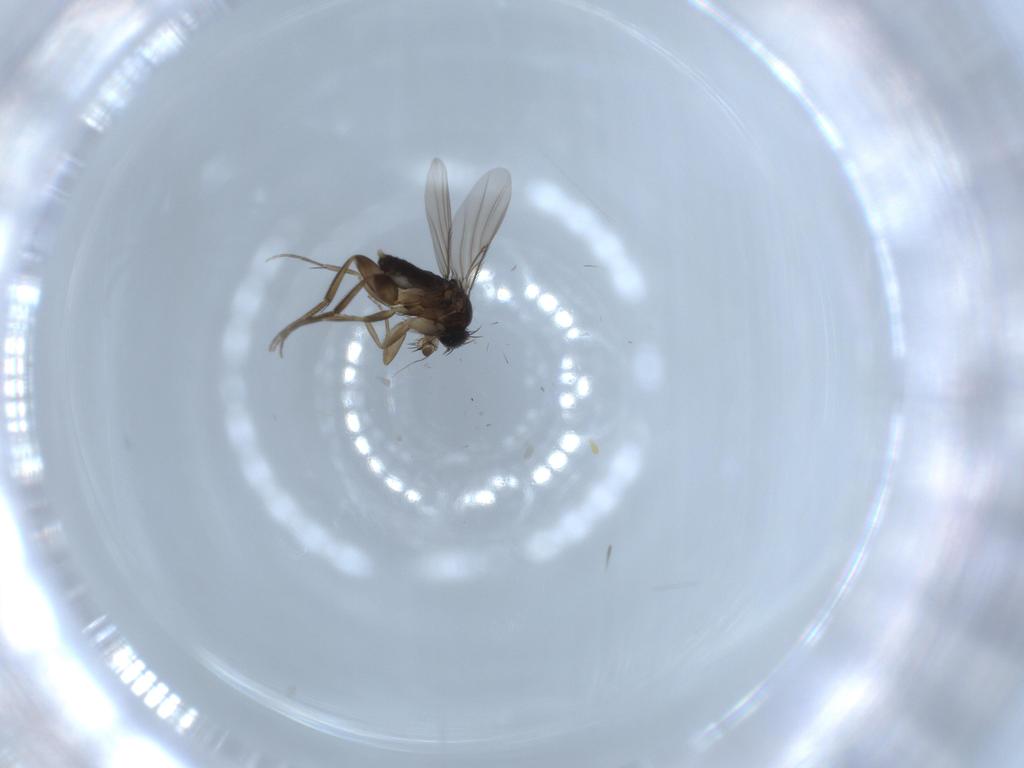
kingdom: Animalia
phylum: Arthropoda
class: Insecta
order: Diptera
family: Phoridae
